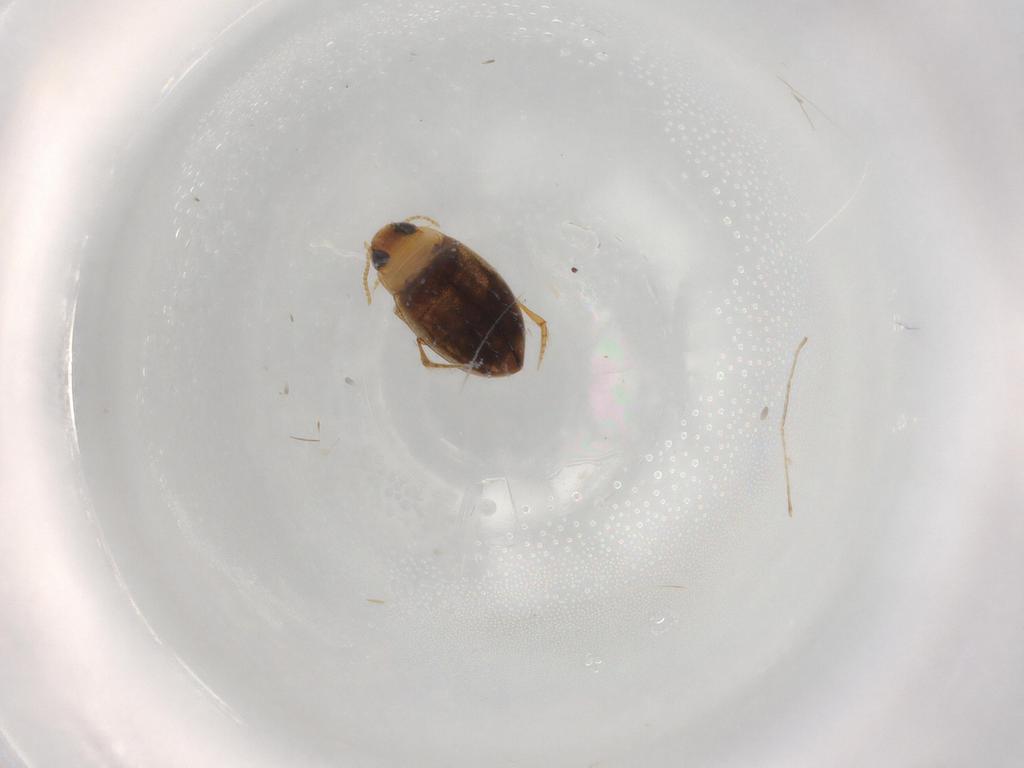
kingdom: Animalia
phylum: Arthropoda
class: Insecta
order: Coleoptera
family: Dytiscidae
